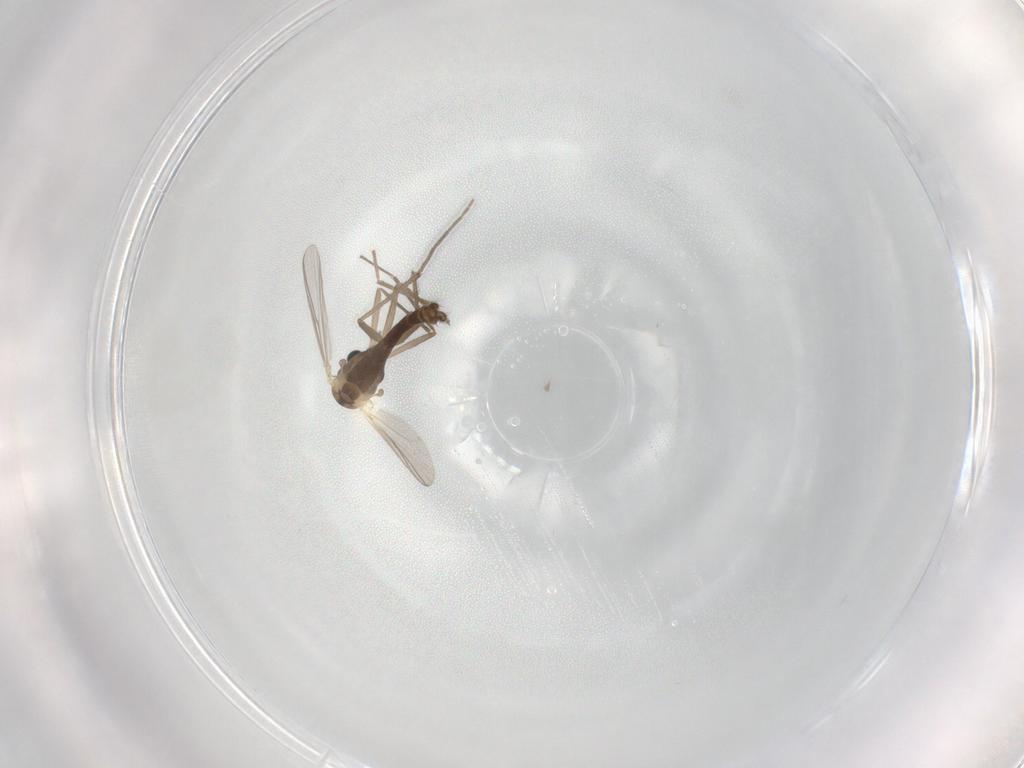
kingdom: Animalia
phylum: Arthropoda
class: Insecta
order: Diptera
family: Chironomidae
